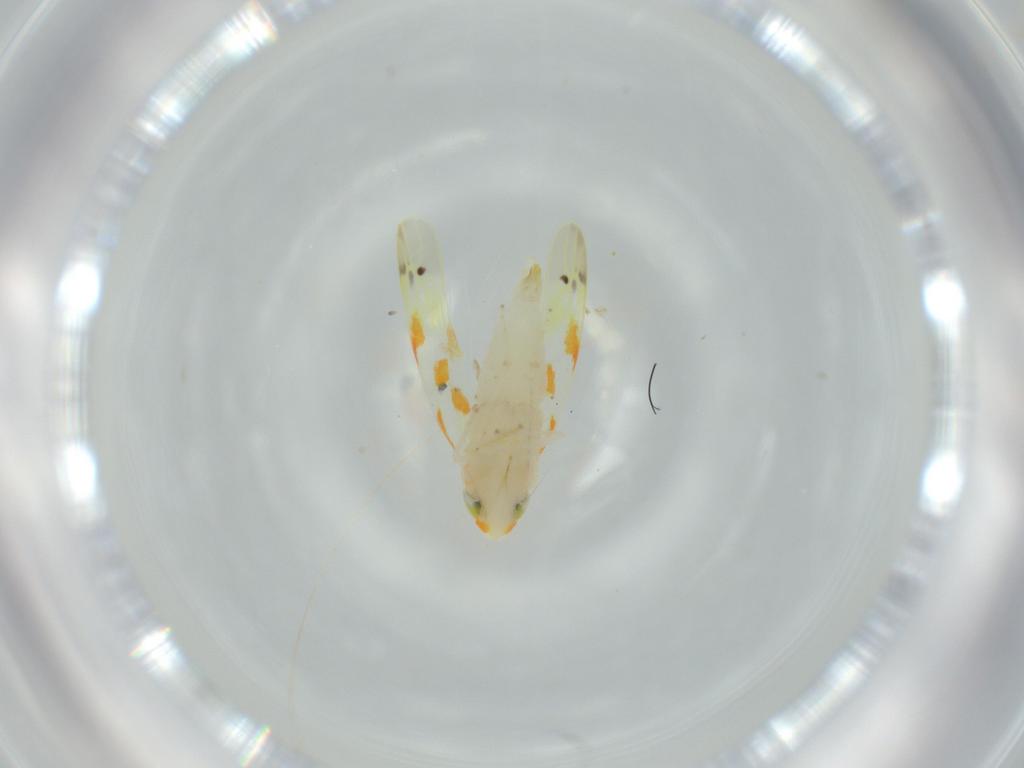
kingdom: Animalia
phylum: Arthropoda
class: Insecta
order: Hemiptera
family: Cicadellidae
